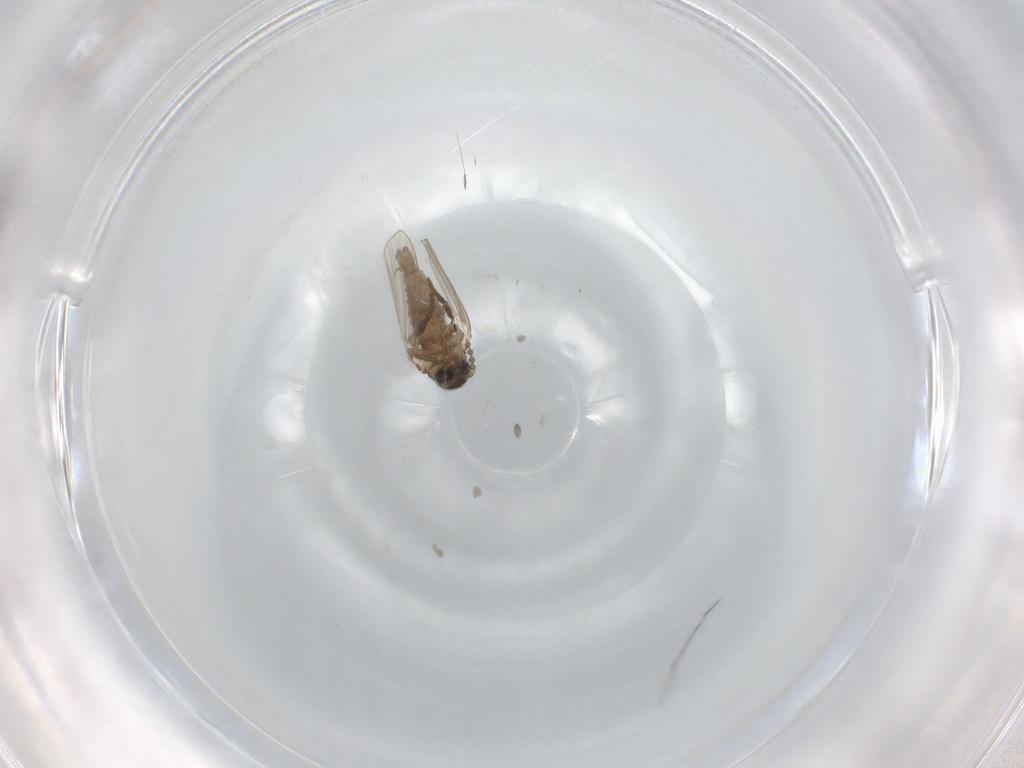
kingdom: Animalia
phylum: Arthropoda
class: Insecta
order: Diptera
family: Psychodidae
